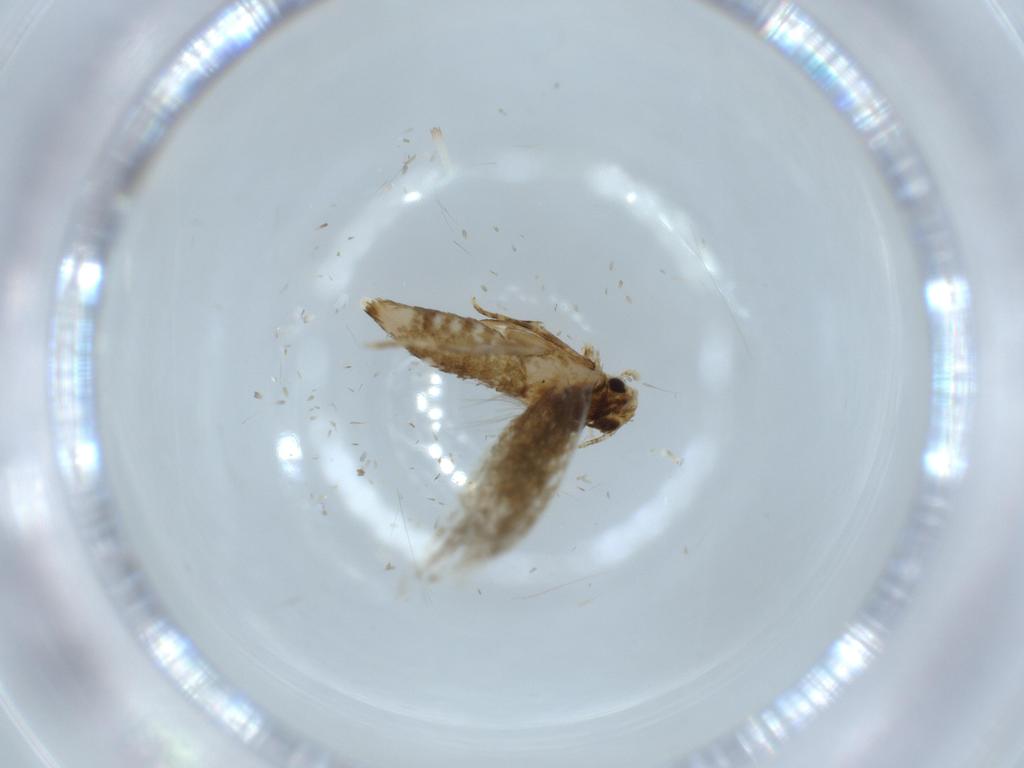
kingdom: Animalia
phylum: Arthropoda
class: Insecta
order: Lepidoptera
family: Tineidae
